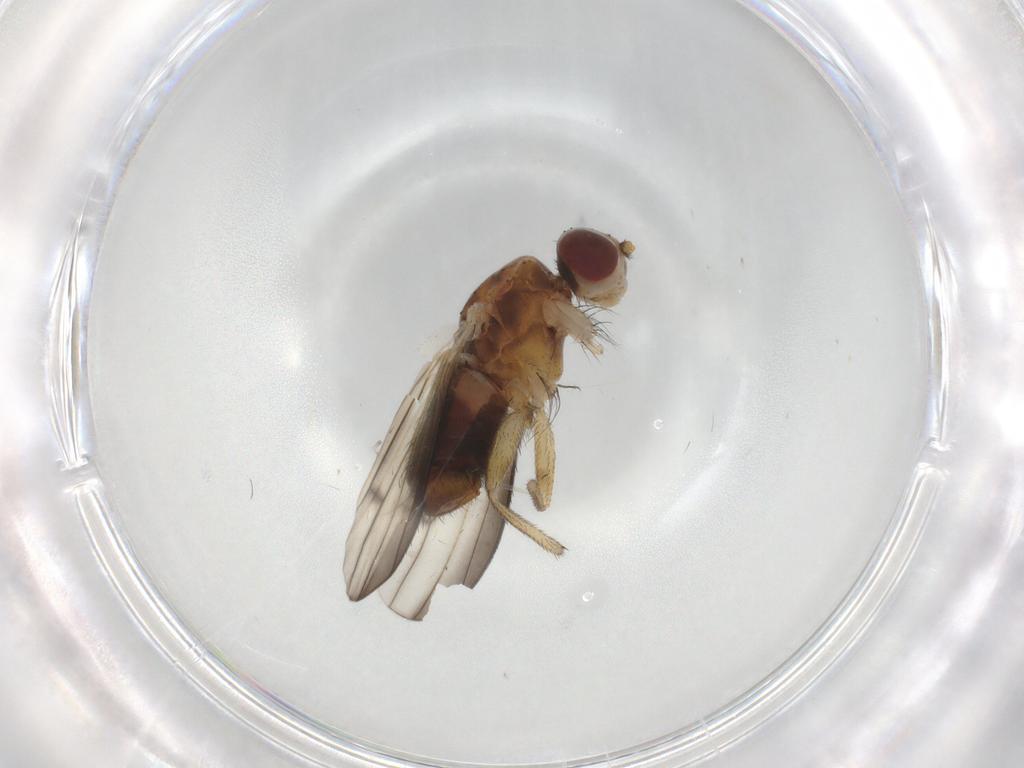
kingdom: Animalia
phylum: Arthropoda
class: Insecta
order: Diptera
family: Heleomyzidae
